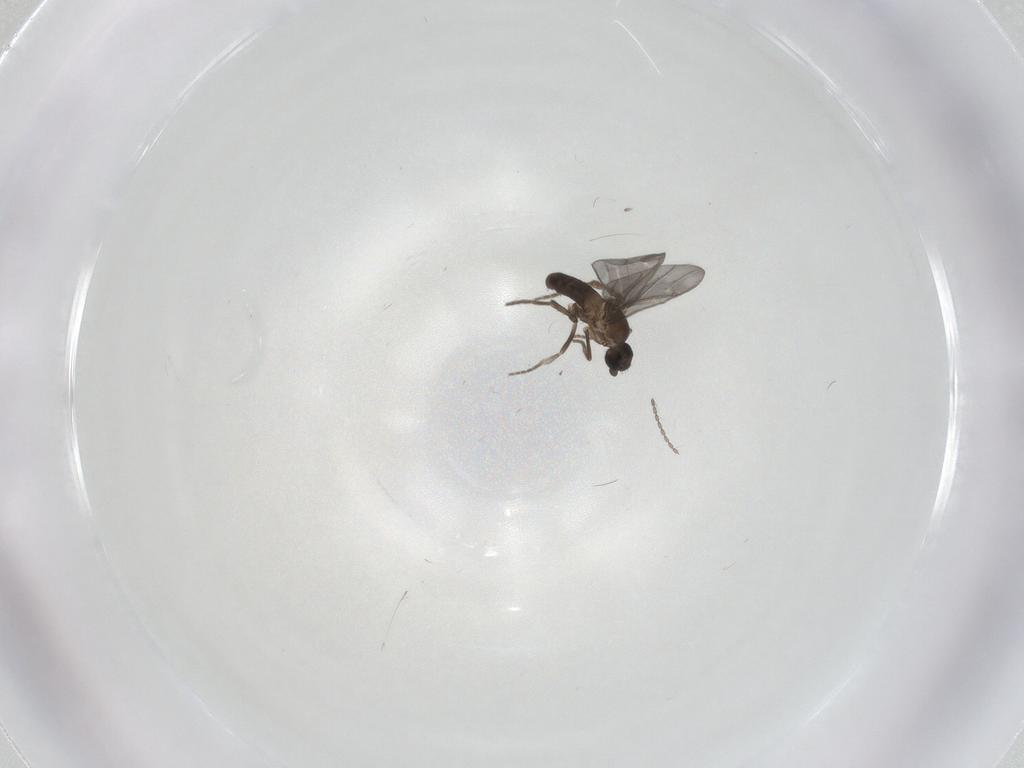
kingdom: Animalia
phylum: Arthropoda
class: Insecta
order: Diptera
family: Phoridae
